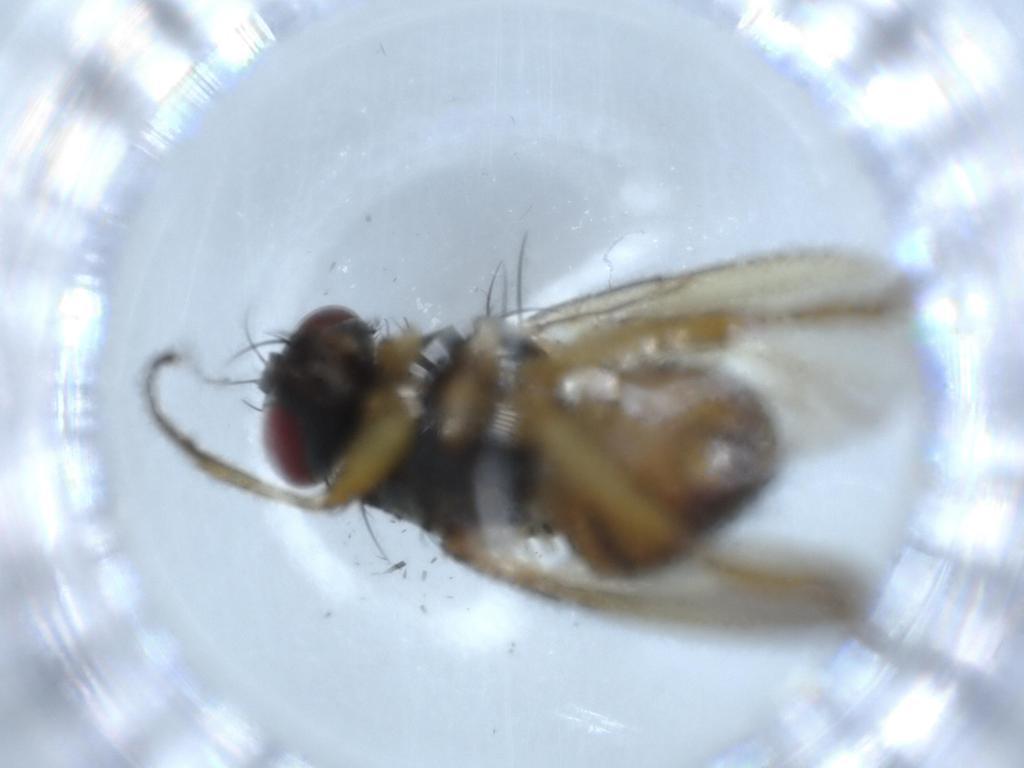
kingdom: Animalia
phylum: Arthropoda
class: Insecta
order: Diptera
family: Muscidae
